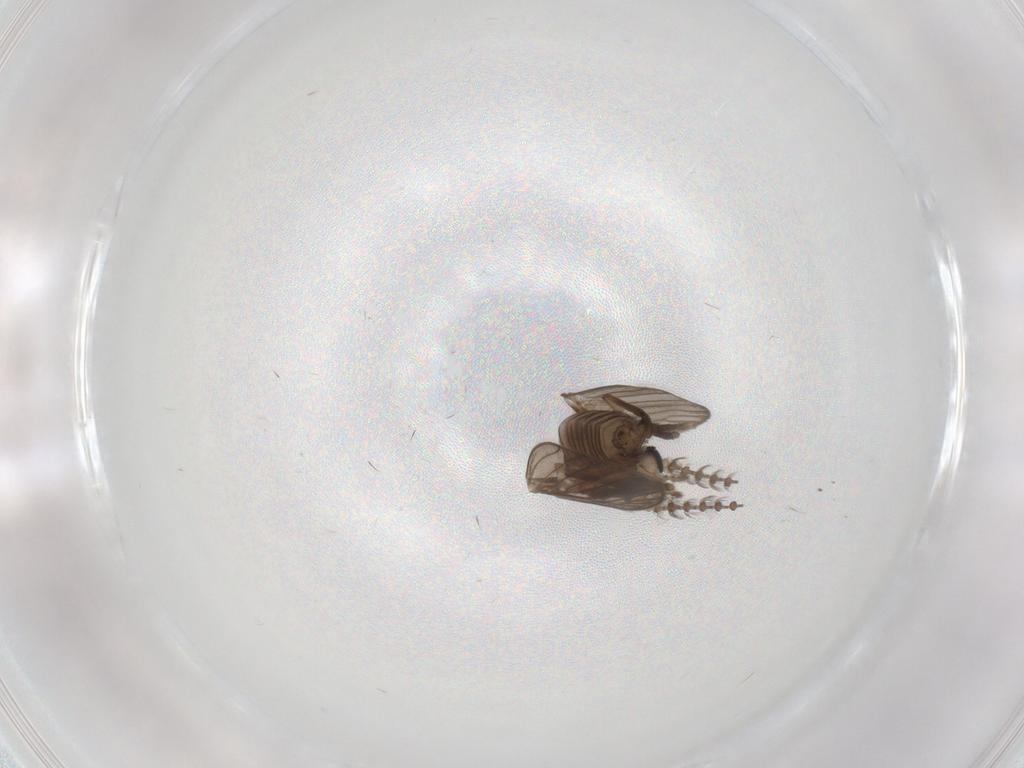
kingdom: Animalia
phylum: Arthropoda
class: Insecta
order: Diptera
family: Psychodidae
